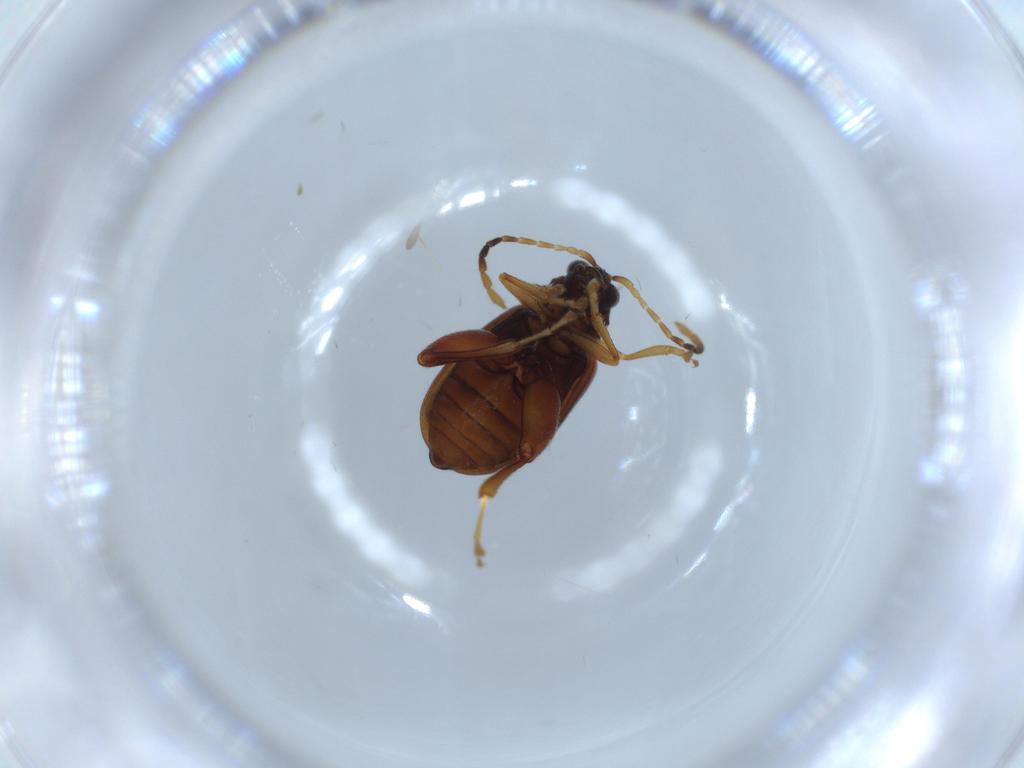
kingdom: Animalia
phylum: Arthropoda
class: Insecta
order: Coleoptera
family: Chrysomelidae
